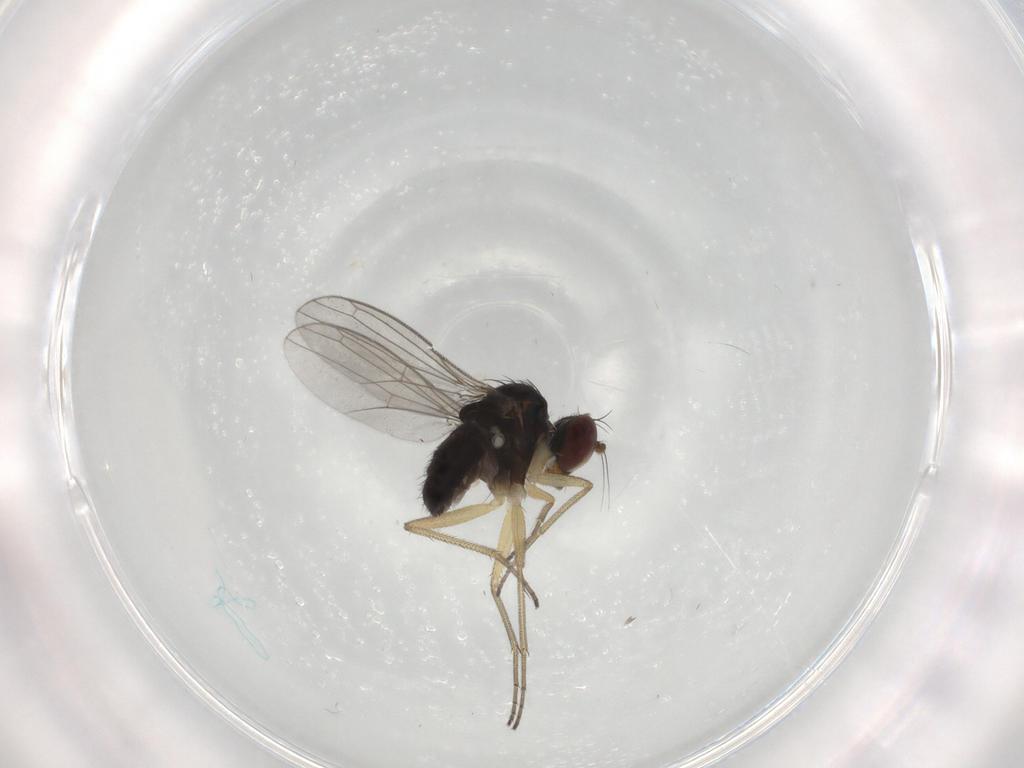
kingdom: Animalia
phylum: Arthropoda
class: Insecta
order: Diptera
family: Dolichopodidae
